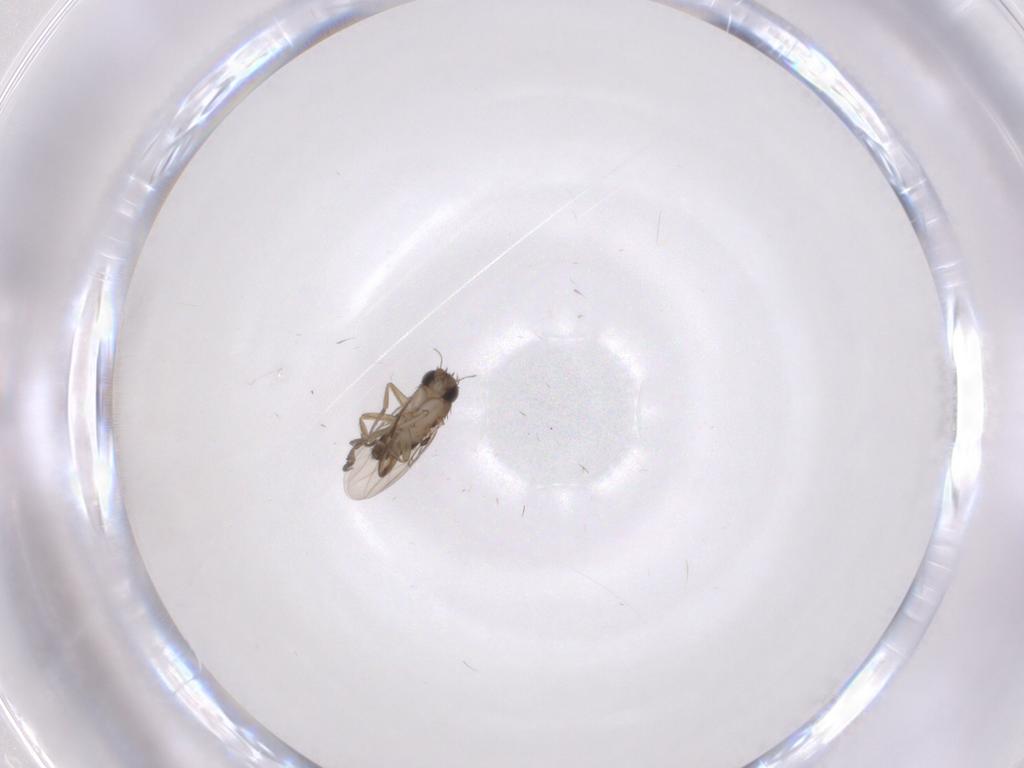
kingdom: Animalia
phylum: Arthropoda
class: Insecta
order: Diptera
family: Phoridae
